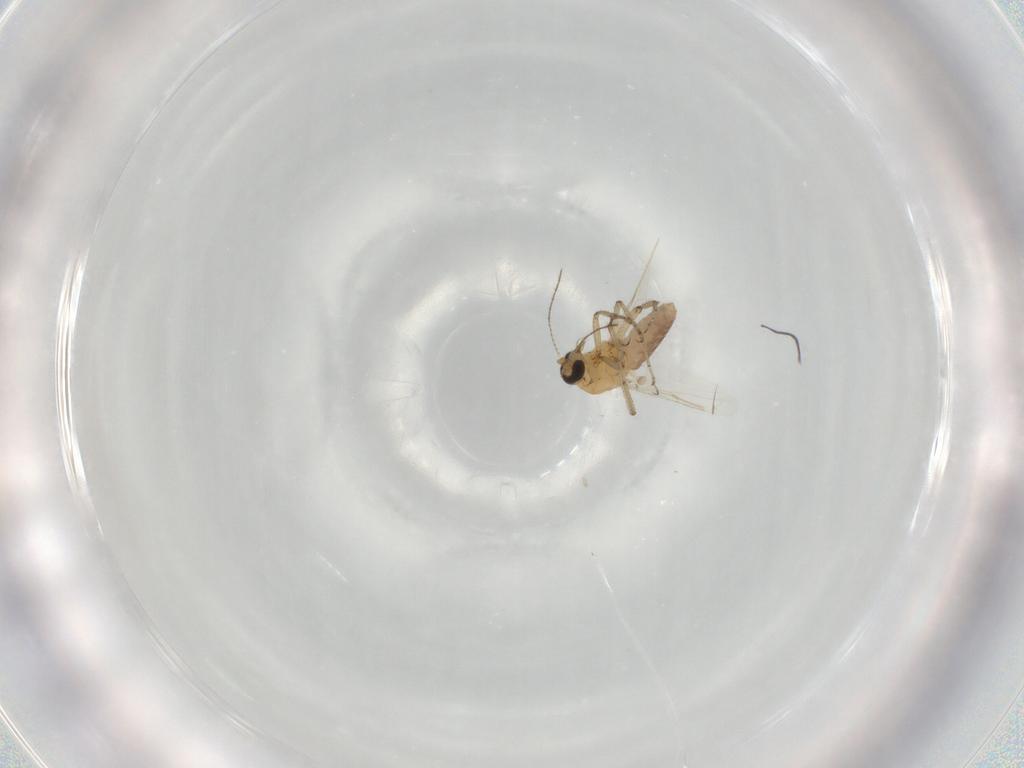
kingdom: Animalia
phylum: Arthropoda
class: Insecta
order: Diptera
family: Ceratopogonidae
